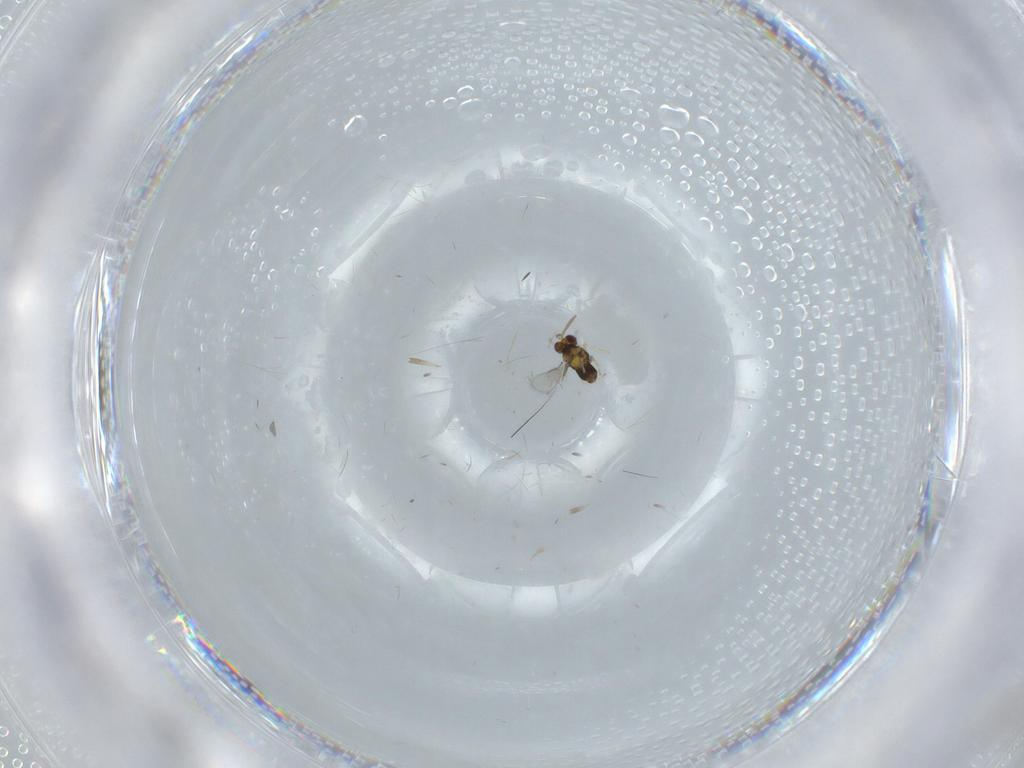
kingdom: Animalia
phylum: Arthropoda
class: Insecta
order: Hymenoptera
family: Aphelinidae
